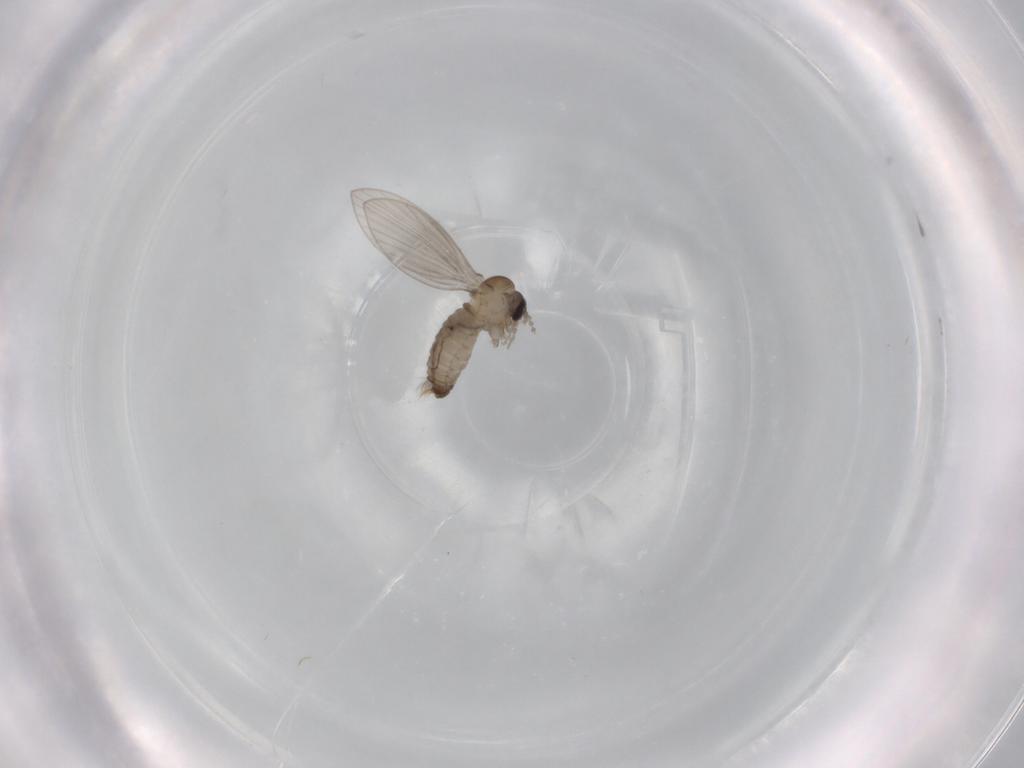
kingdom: Animalia
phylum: Arthropoda
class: Insecta
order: Diptera
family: Psychodidae
